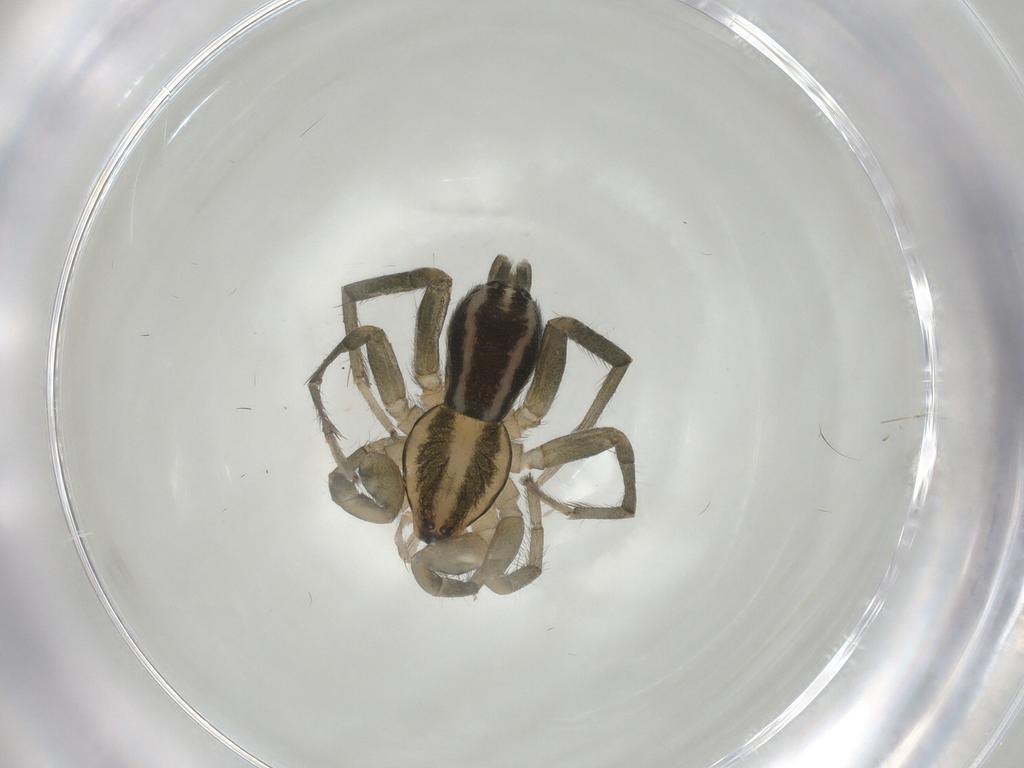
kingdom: Animalia
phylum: Arthropoda
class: Arachnida
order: Araneae
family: Gnaphosidae
